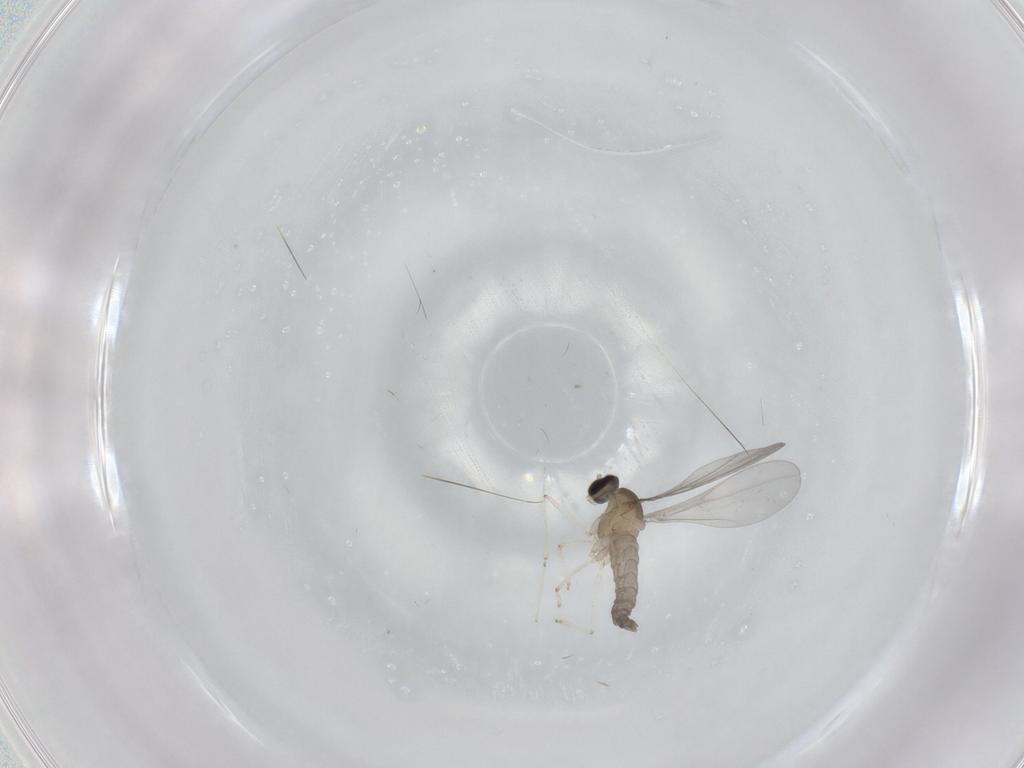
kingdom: Animalia
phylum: Arthropoda
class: Insecta
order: Diptera
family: Cecidomyiidae
